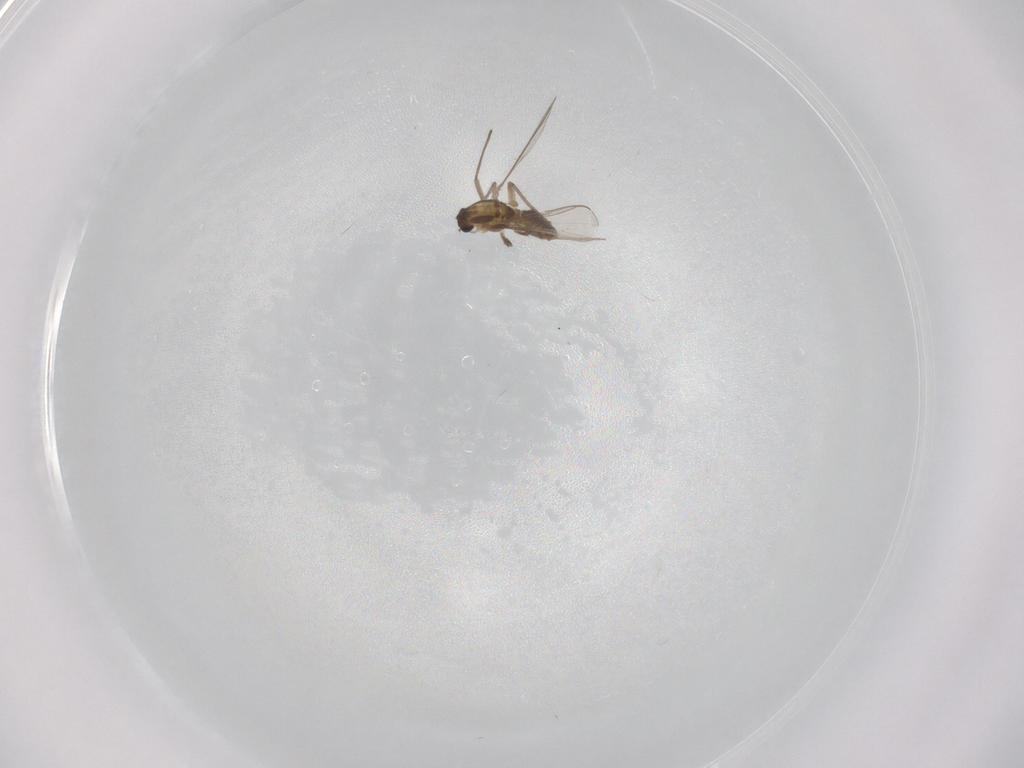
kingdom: Animalia
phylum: Arthropoda
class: Insecta
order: Diptera
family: Chironomidae
